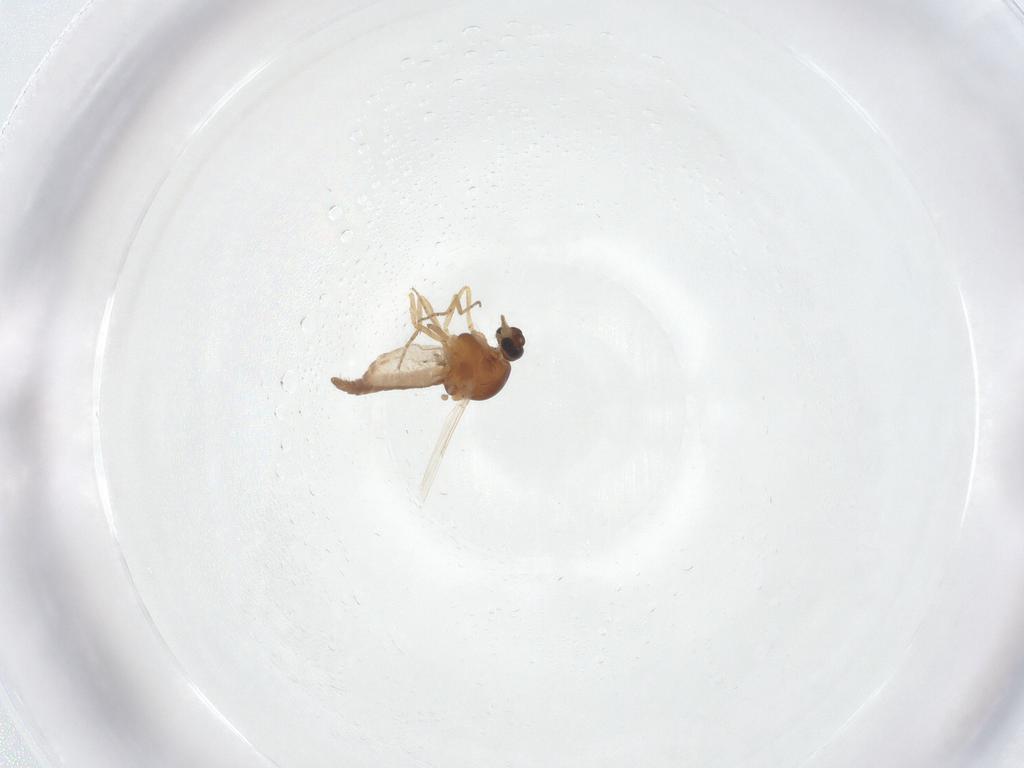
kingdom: Animalia
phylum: Arthropoda
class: Insecta
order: Diptera
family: Ceratopogonidae
